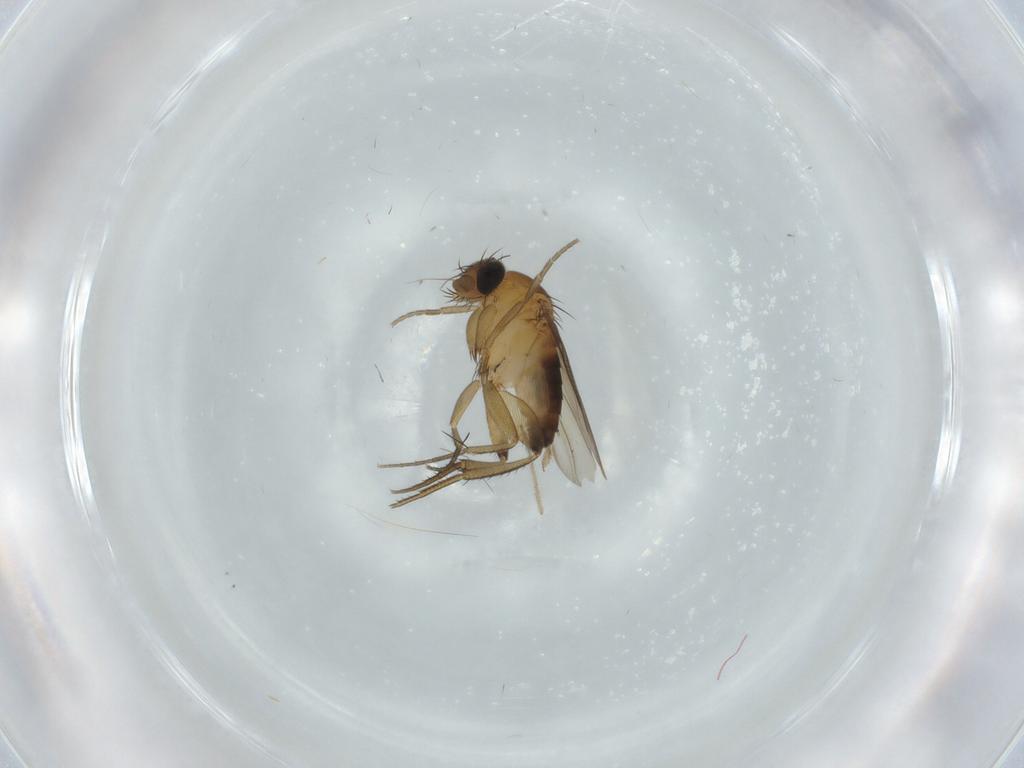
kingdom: Animalia
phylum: Arthropoda
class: Insecta
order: Diptera
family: Phoridae
